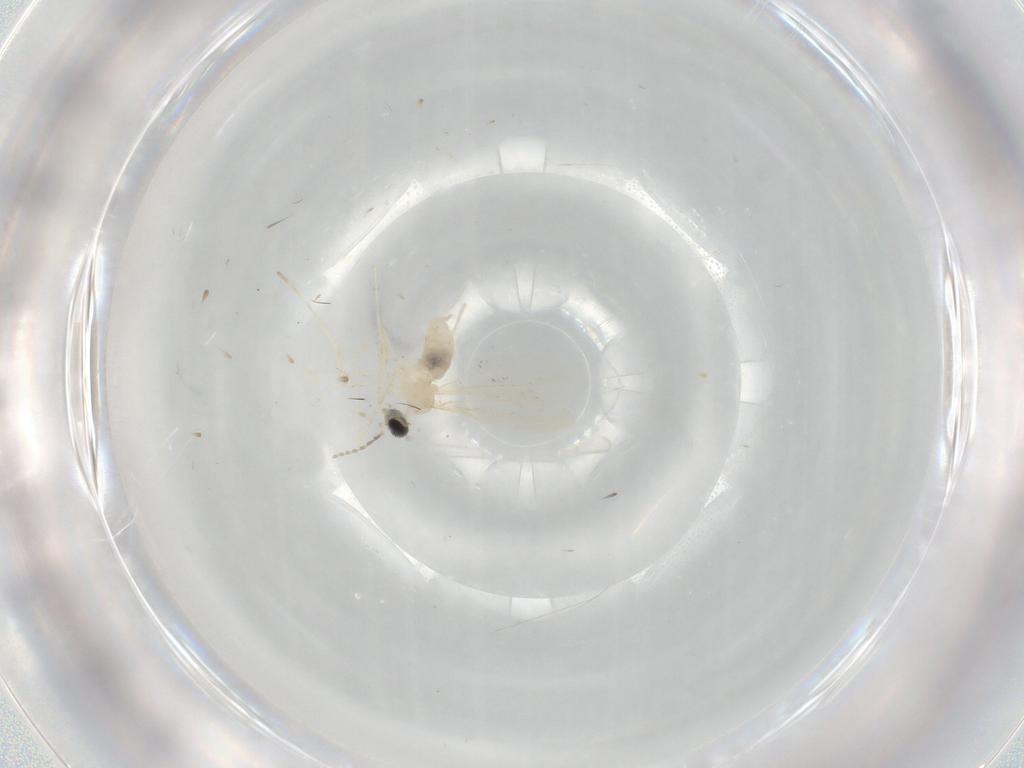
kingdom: Animalia
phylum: Arthropoda
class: Insecta
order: Diptera
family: Cecidomyiidae
